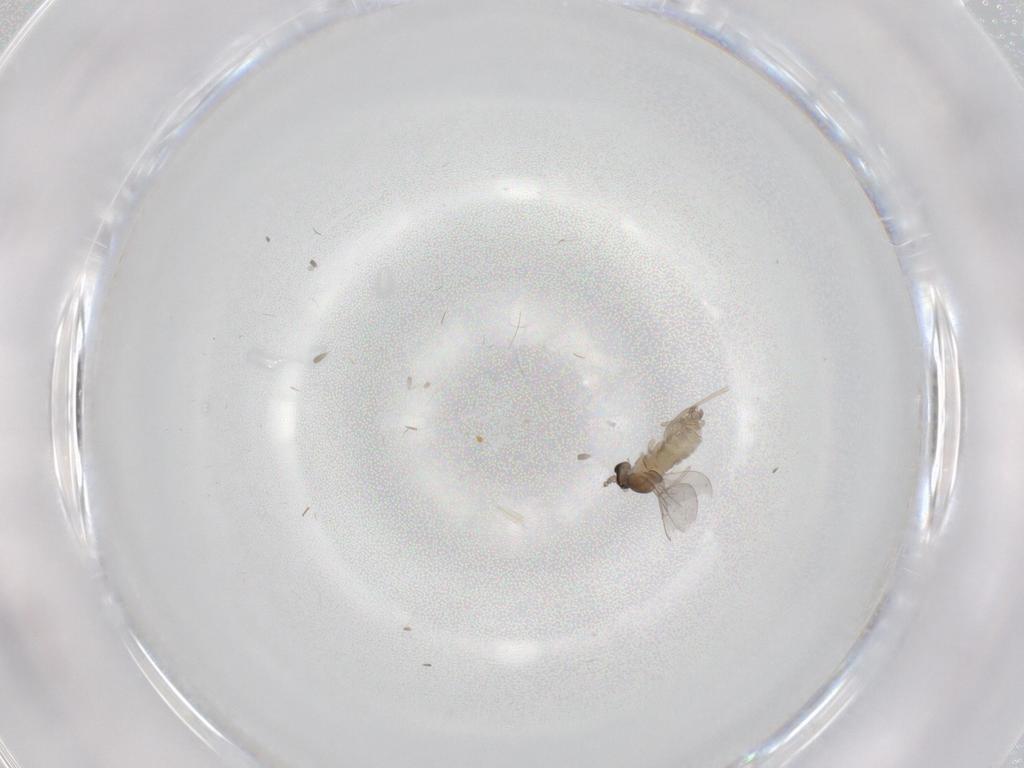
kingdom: Animalia
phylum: Arthropoda
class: Insecta
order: Diptera
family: Cecidomyiidae
